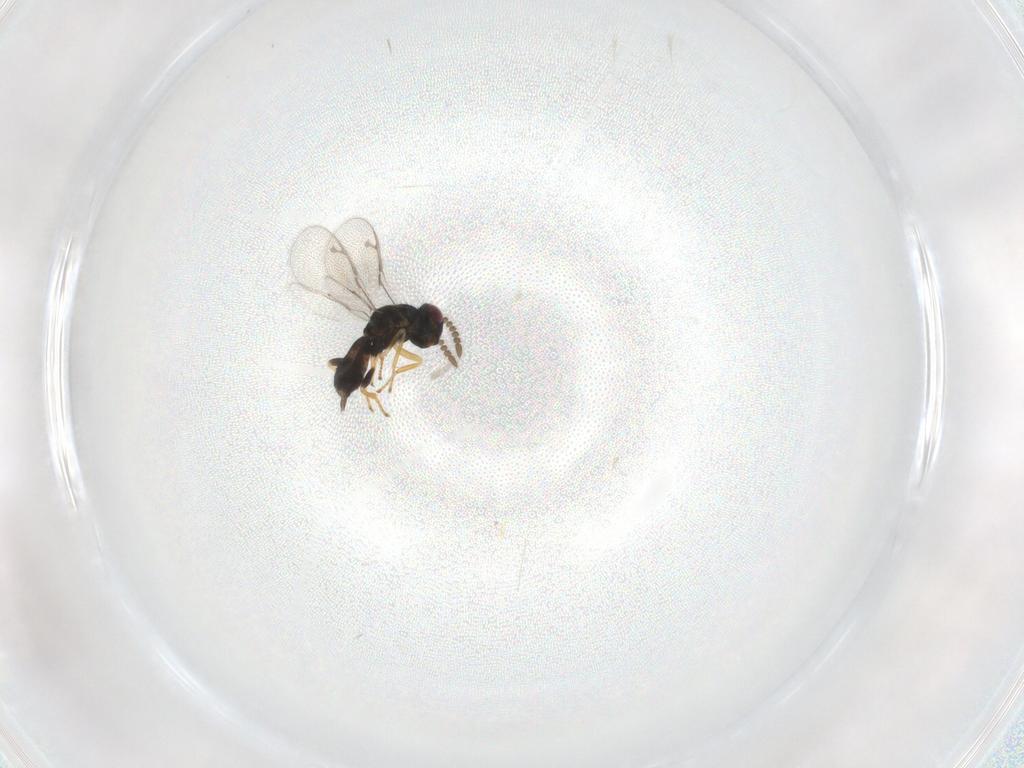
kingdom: Animalia
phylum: Arthropoda
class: Insecta
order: Hymenoptera
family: Pirenidae
